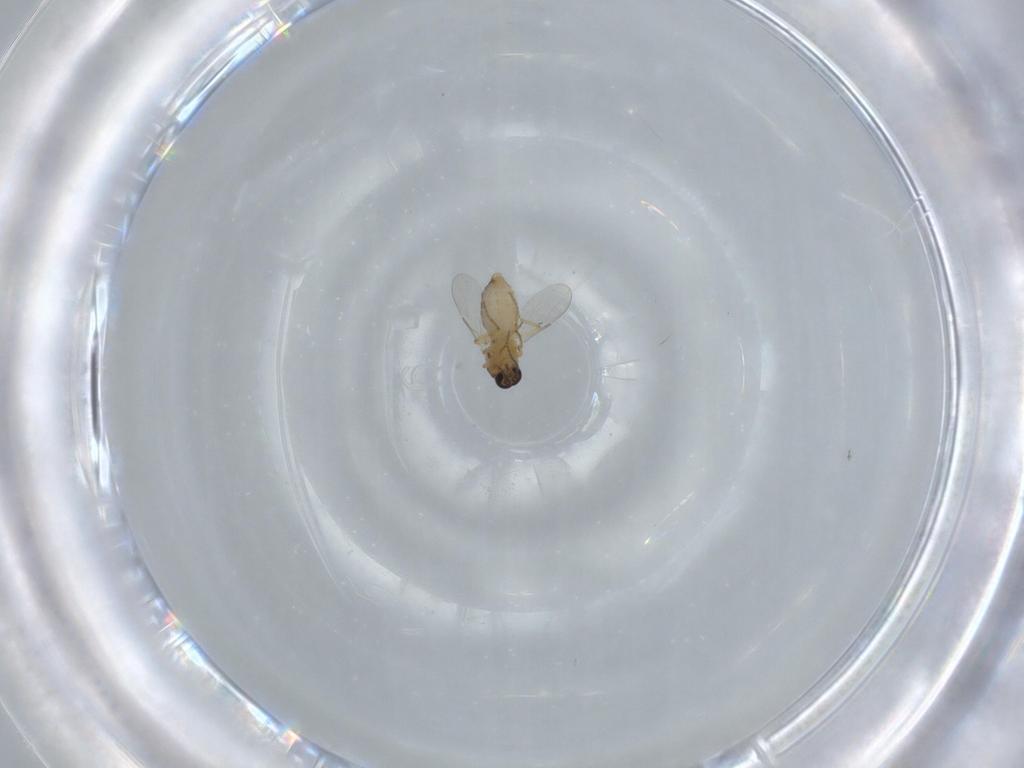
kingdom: Animalia
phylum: Arthropoda
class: Insecta
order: Diptera
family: Ceratopogonidae
